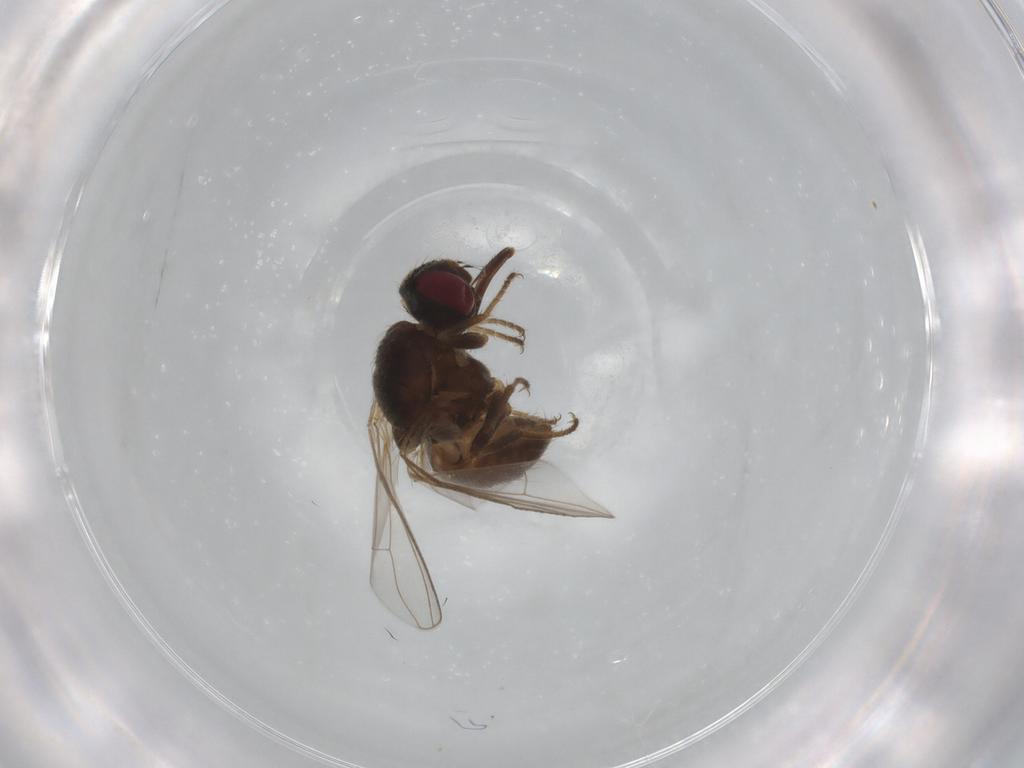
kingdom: Animalia
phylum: Arthropoda
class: Insecta
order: Diptera
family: Muscidae
